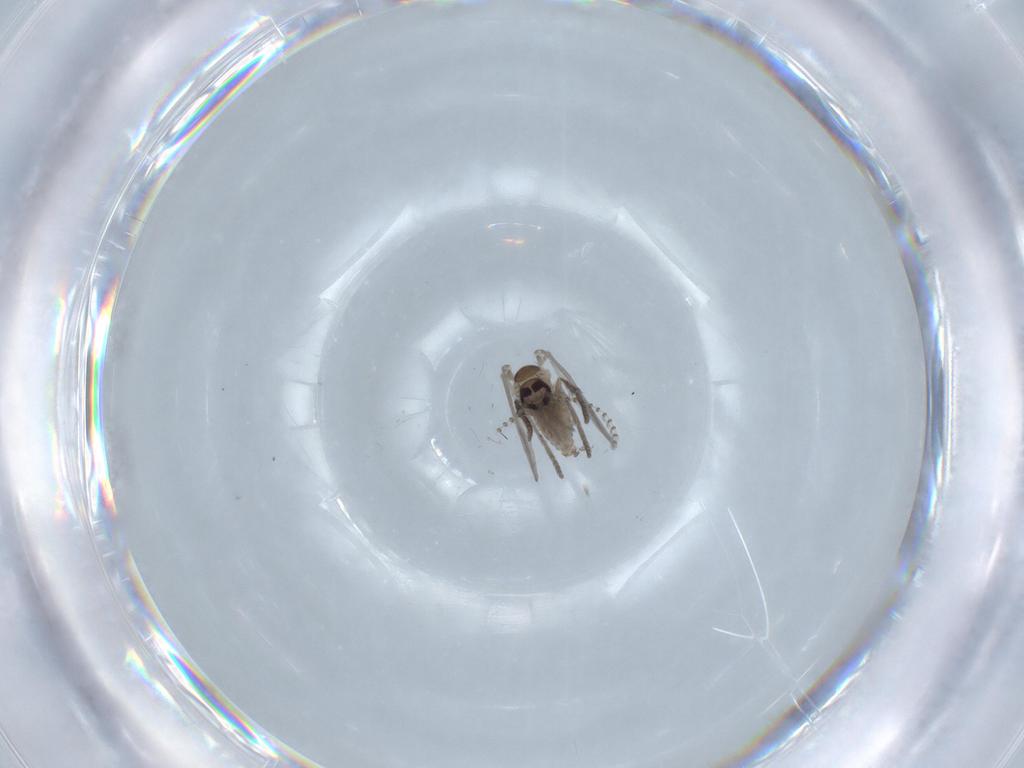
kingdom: Animalia
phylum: Arthropoda
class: Insecta
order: Diptera
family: Psychodidae
